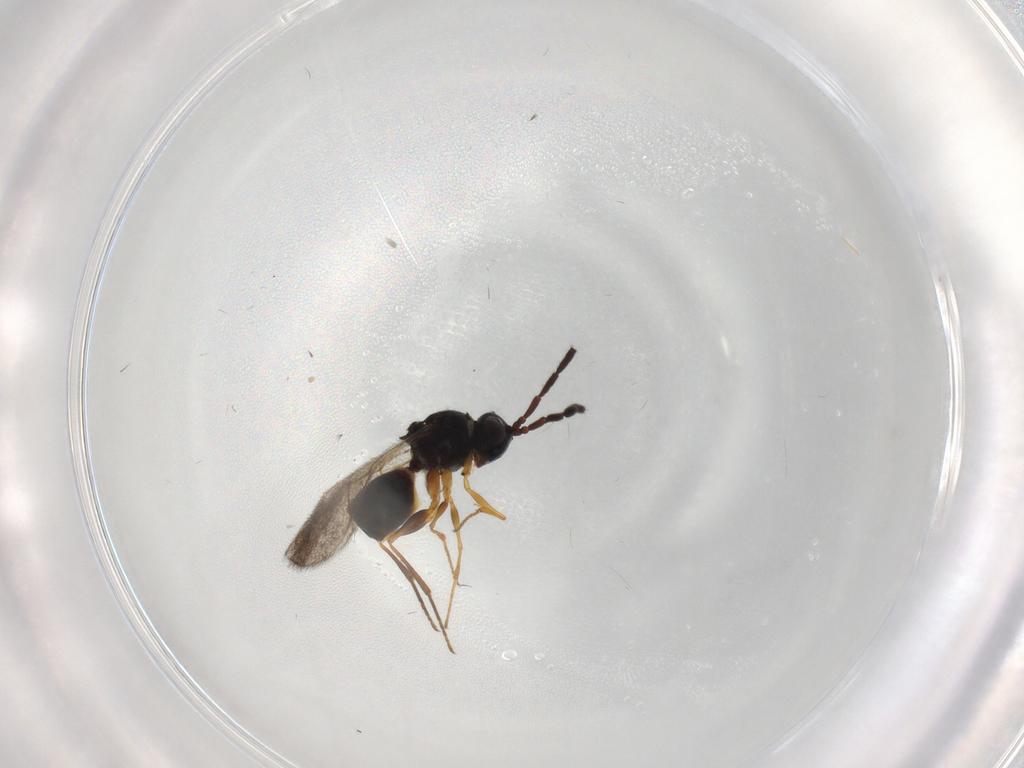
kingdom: Animalia
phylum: Arthropoda
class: Insecta
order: Hymenoptera
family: Figitidae
